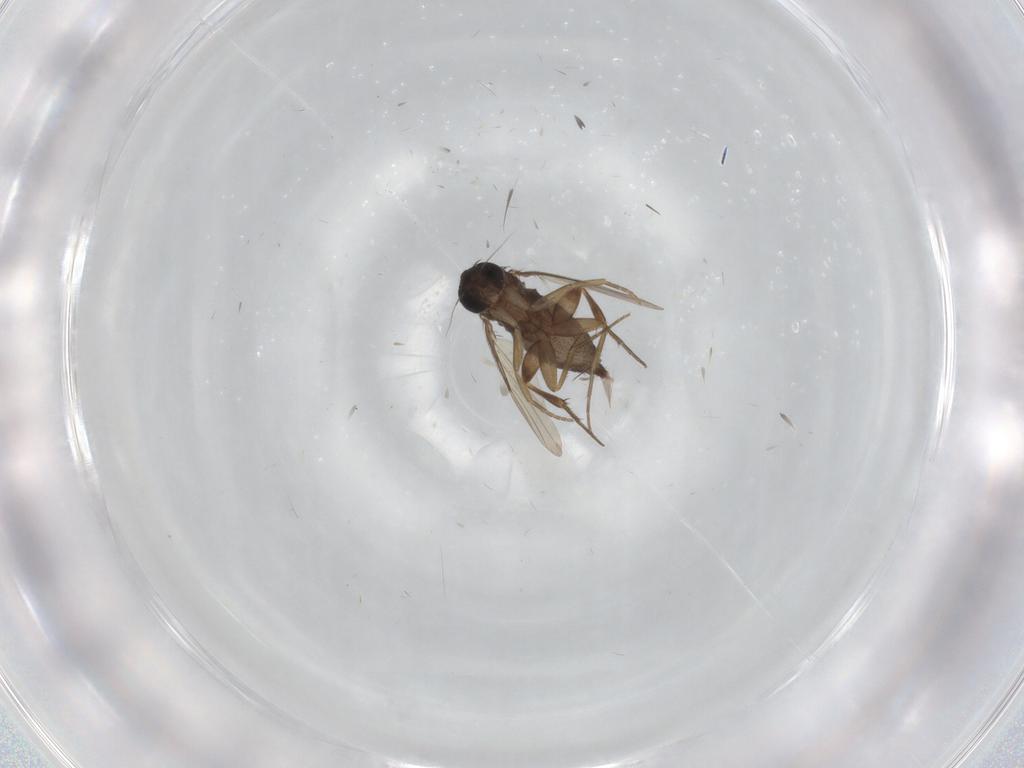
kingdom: Animalia
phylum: Arthropoda
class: Insecta
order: Diptera
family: Phoridae
